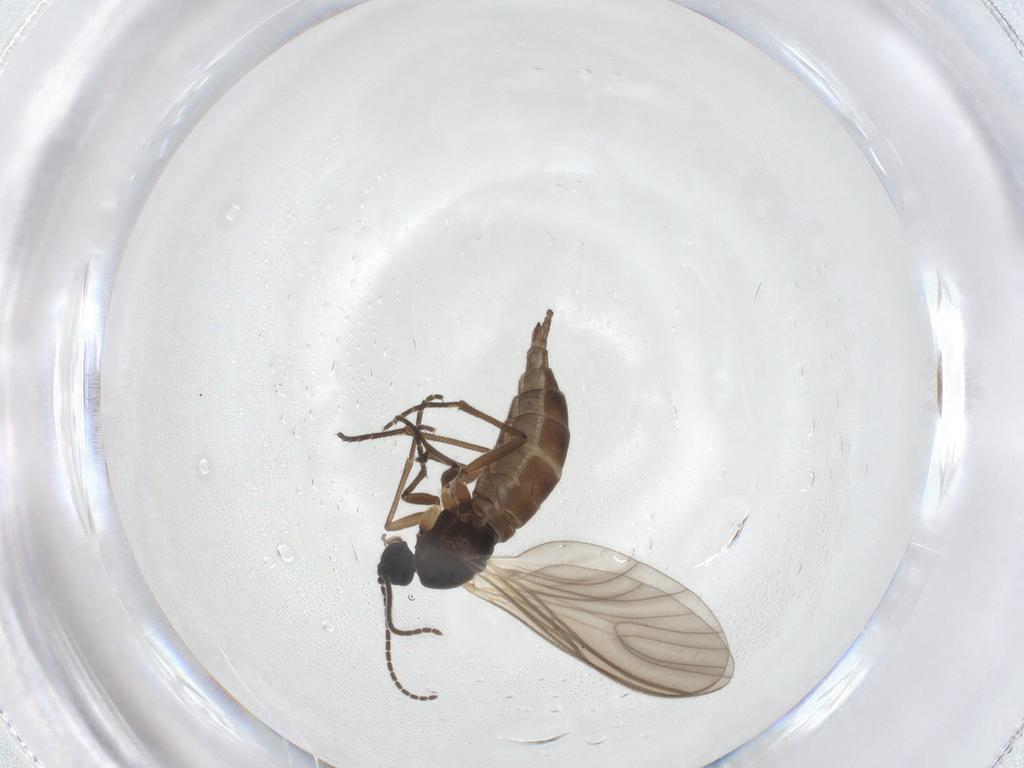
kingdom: Animalia
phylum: Arthropoda
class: Insecta
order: Diptera
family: Sciaridae
